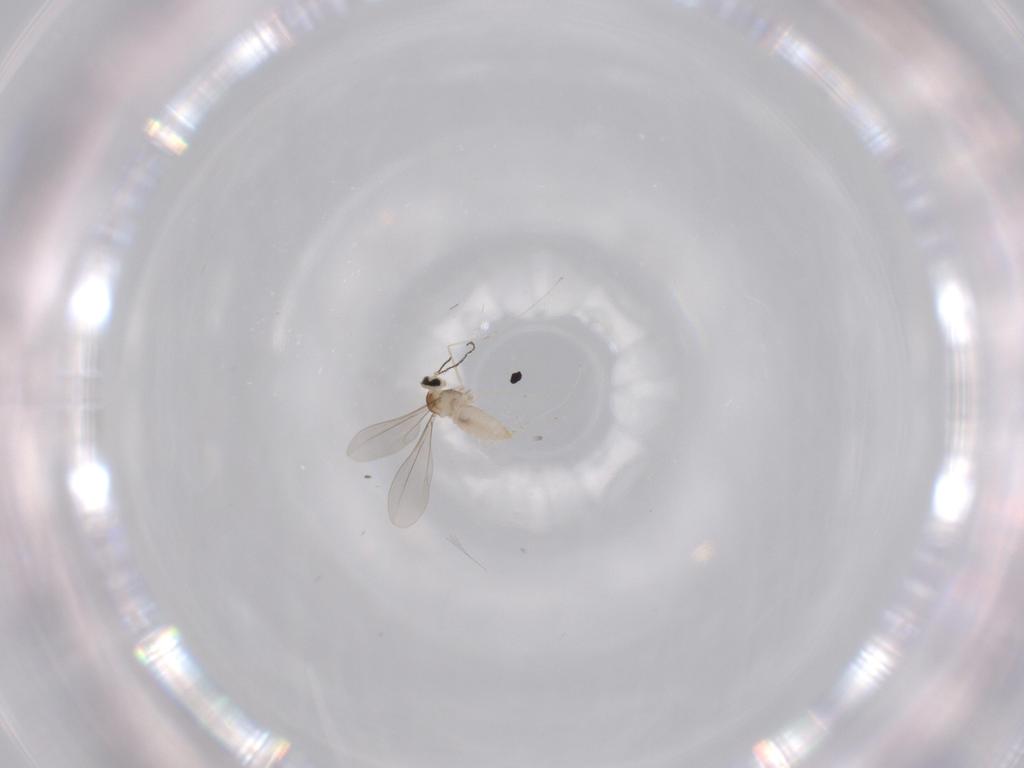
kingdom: Animalia
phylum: Arthropoda
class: Insecta
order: Diptera
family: Cecidomyiidae
